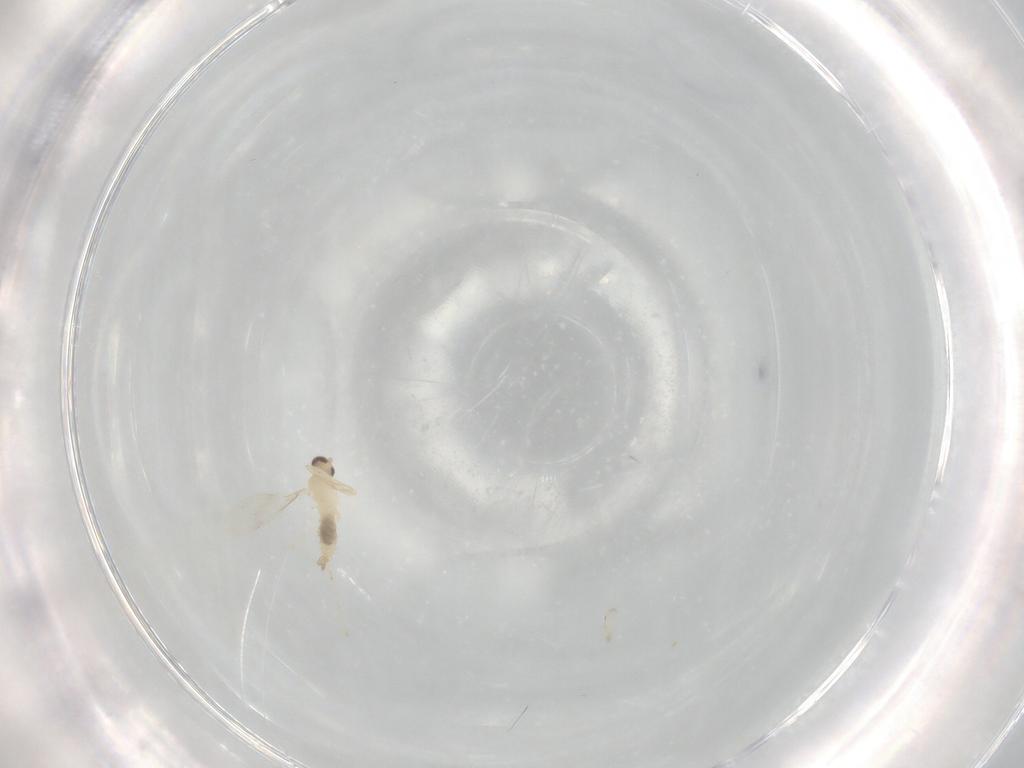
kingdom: Animalia
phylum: Arthropoda
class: Insecta
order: Diptera
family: Cecidomyiidae
